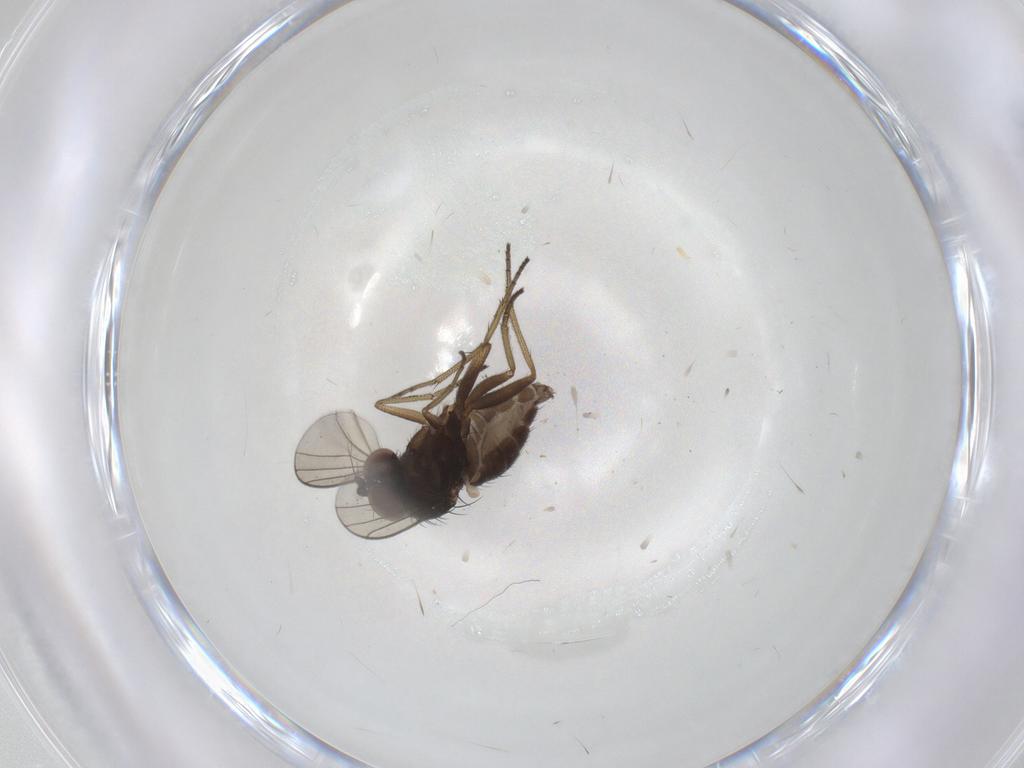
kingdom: Animalia
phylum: Arthropoda
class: Insecta
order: Diptera
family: Dolichopodidae
